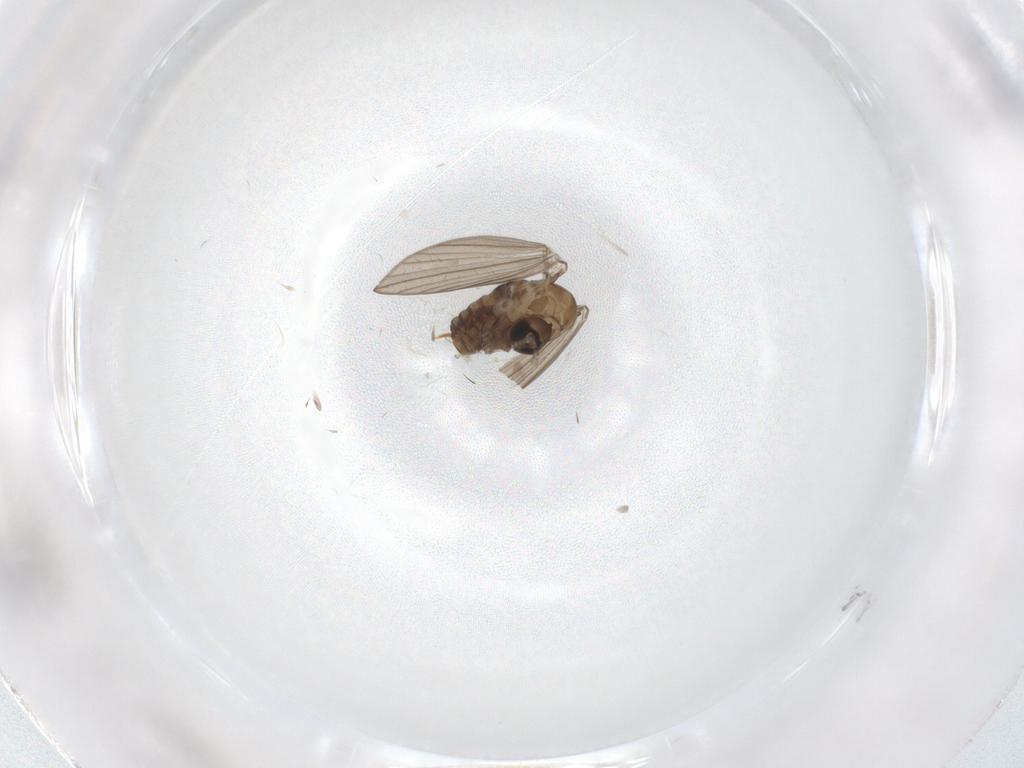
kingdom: Animalia
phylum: Arthropoda
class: Insecta
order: Diptera
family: Psychodidae
